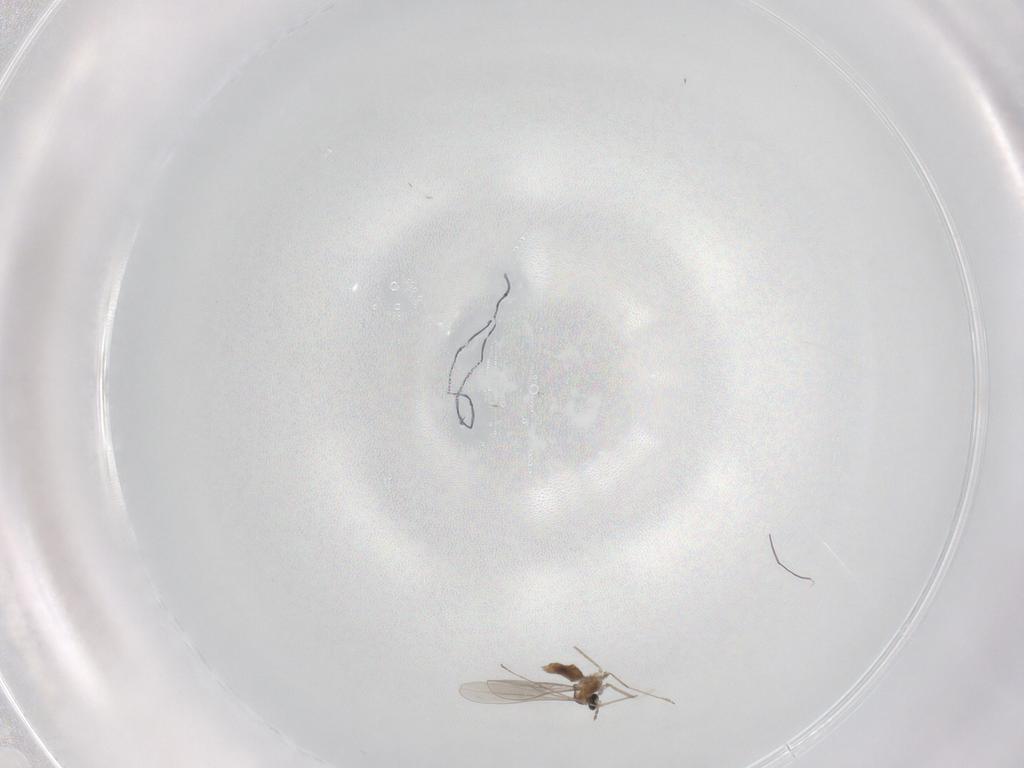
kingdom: Animalia
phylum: Arthropoda
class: Insecta
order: Diptera
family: Cecidomyiidae
